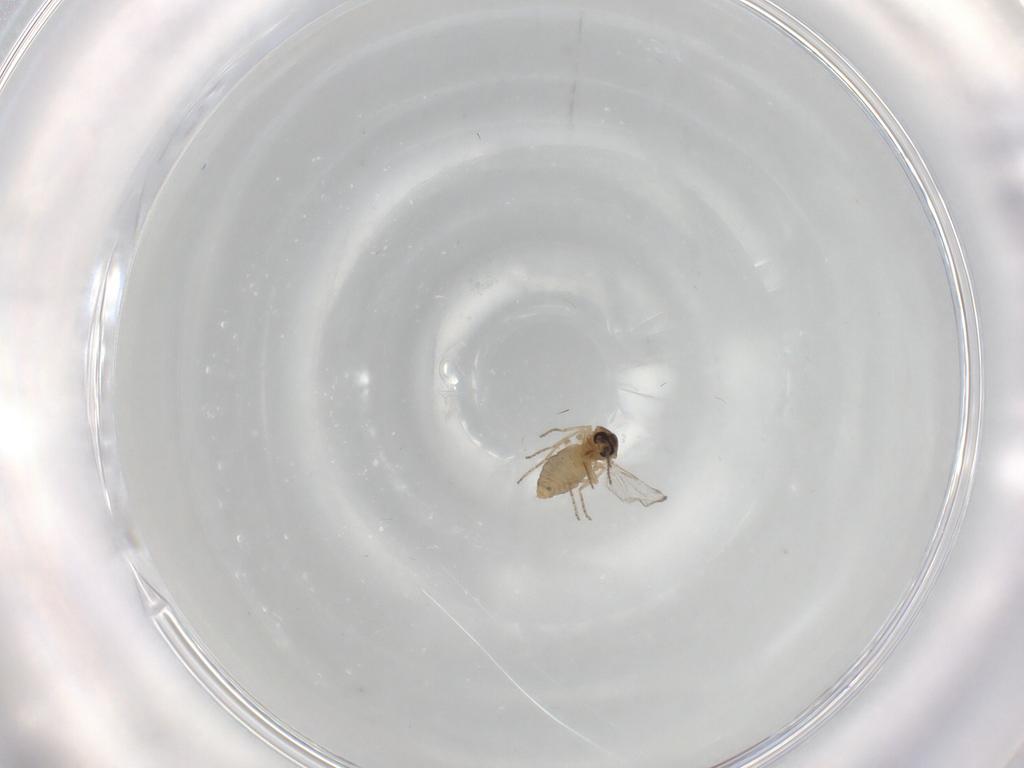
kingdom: Animalia
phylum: Arthropoda
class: Insecta
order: Diptera
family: Ceratopogonidae
